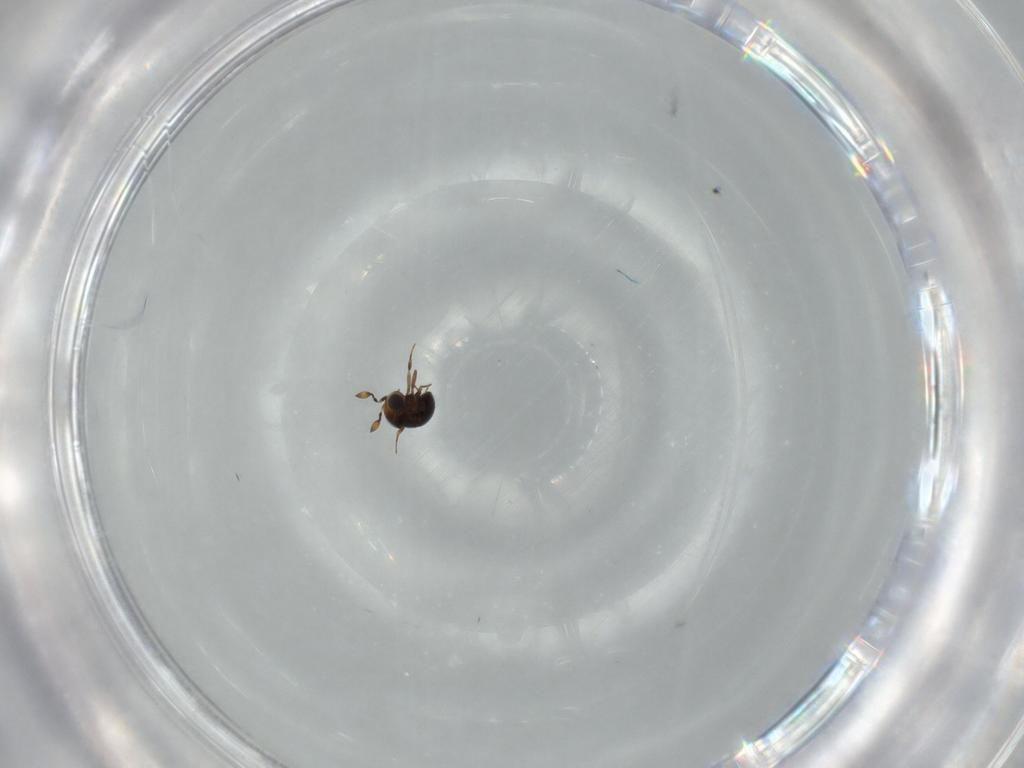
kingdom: Animalia
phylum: Arthropoda
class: Insecta
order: Hymenoptera
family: Scelionidae
